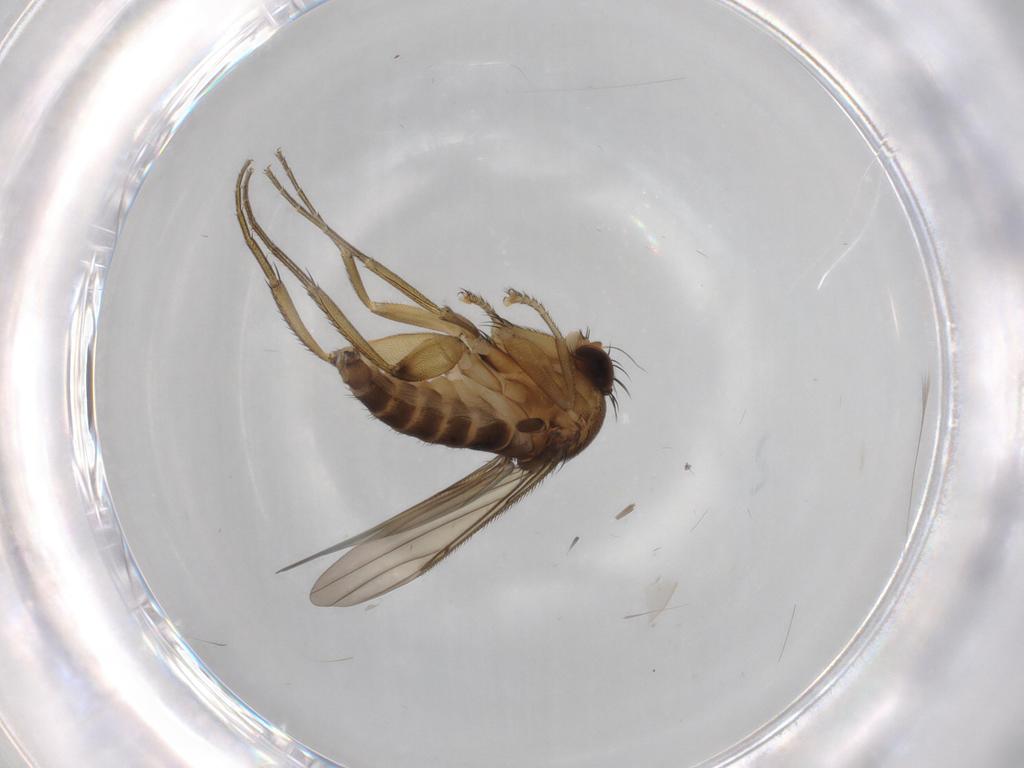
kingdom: Animalia
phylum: Arthropoda
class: Insecta
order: Diptera
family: Phoridae
